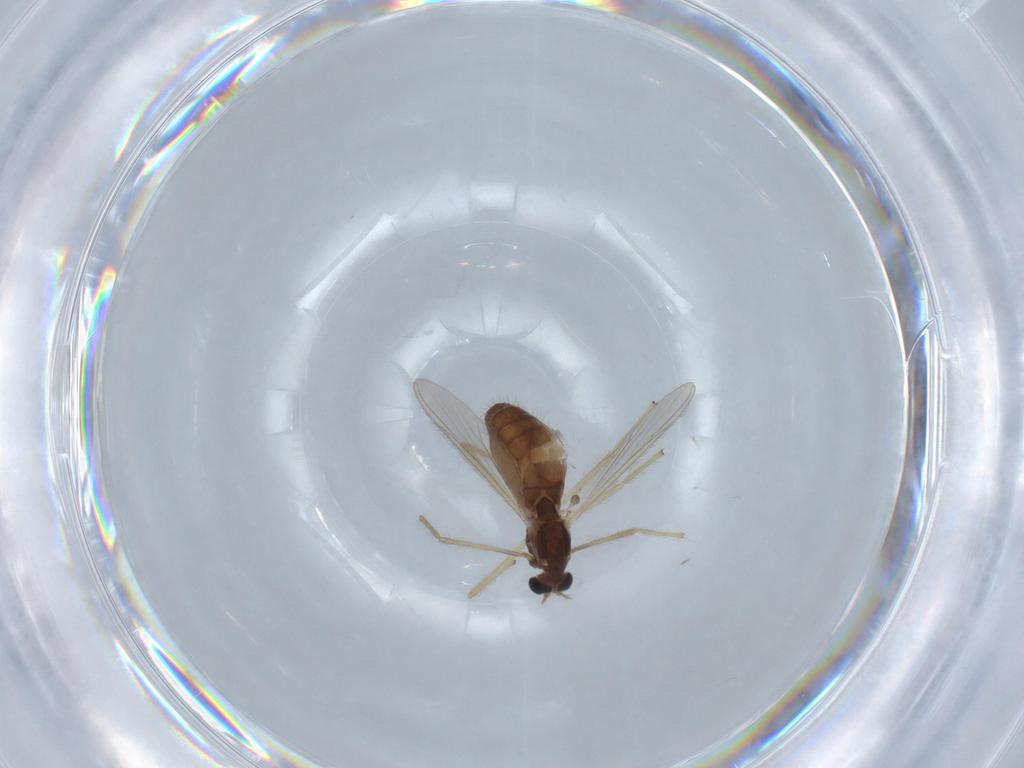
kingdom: Animalia
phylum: Arthropoda
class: Insecta
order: Diptera
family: Chironomidae
